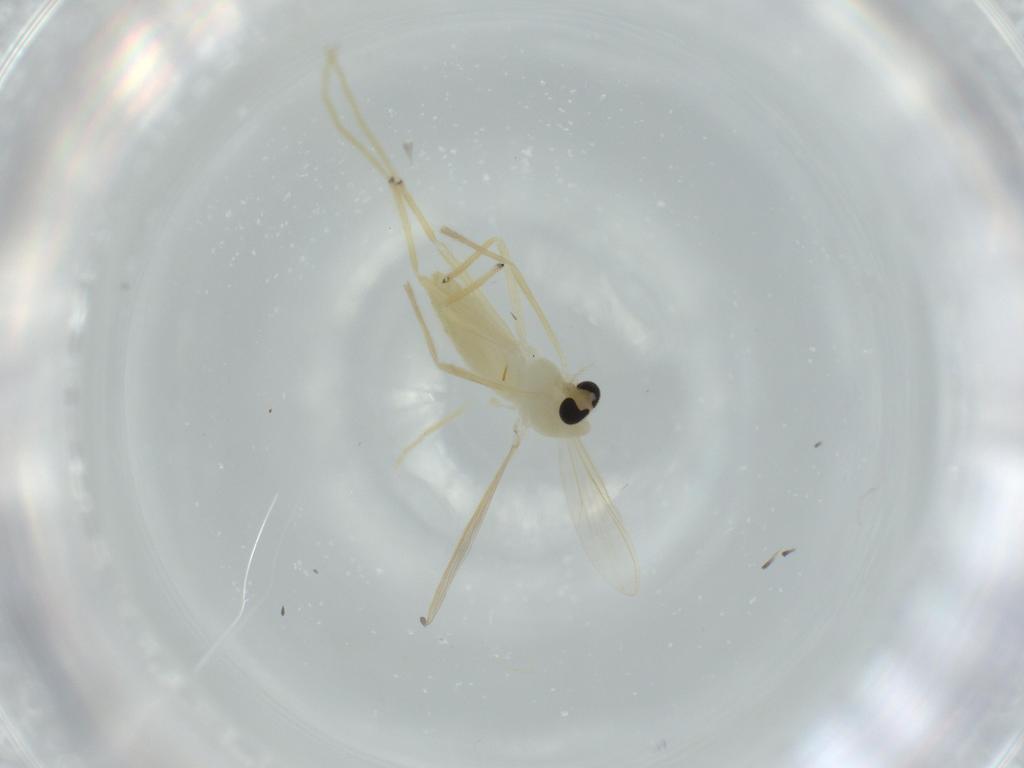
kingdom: Animalia
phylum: Arthropoda
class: Insecta
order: Diptera
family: Chironomidae
